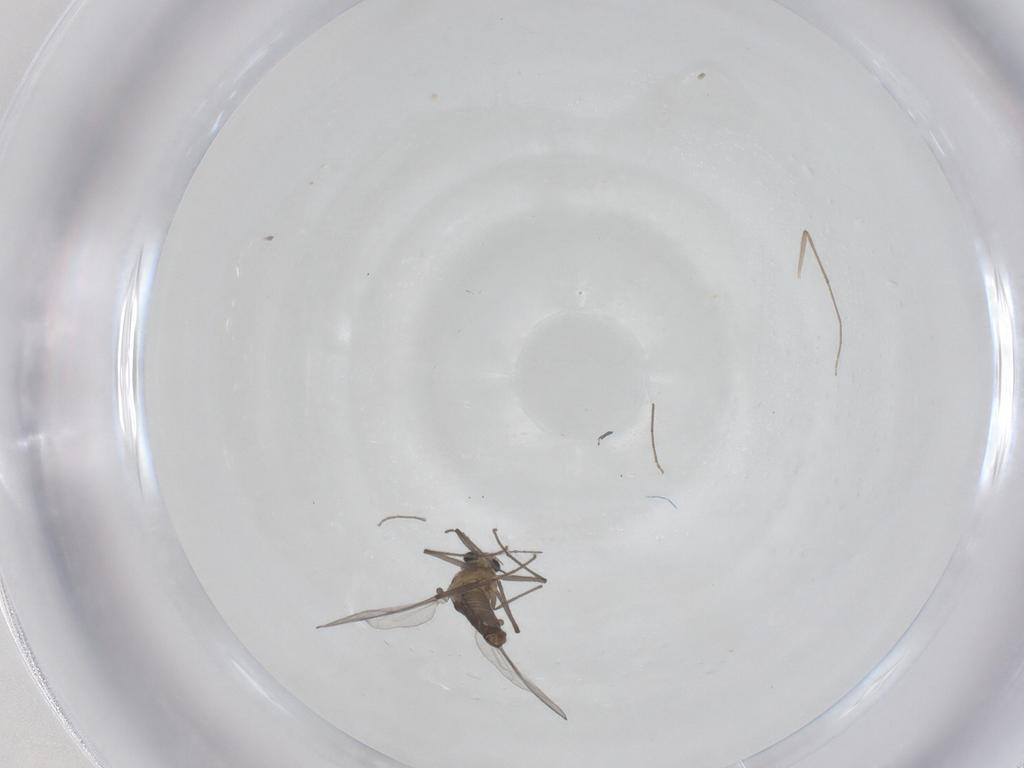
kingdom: Animalia
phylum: Arthropoda
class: Insecta
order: Diptera
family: Chironomidae
